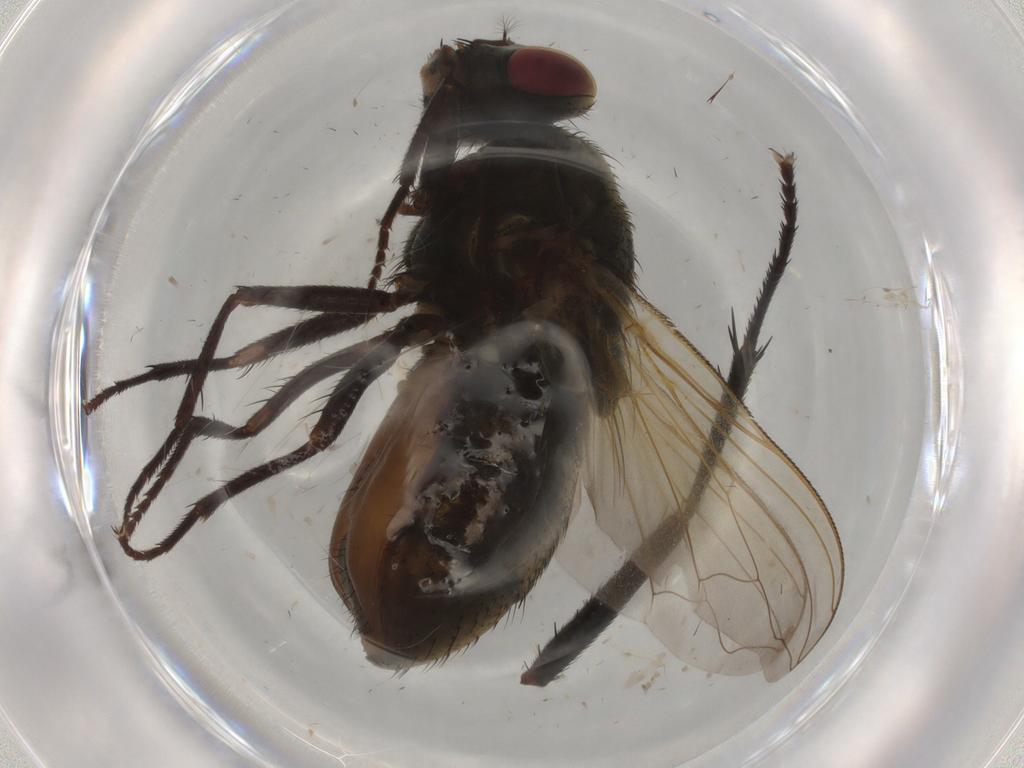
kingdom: Animalia
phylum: Arthropoda
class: Insecta
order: Diptera
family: Muscidae
